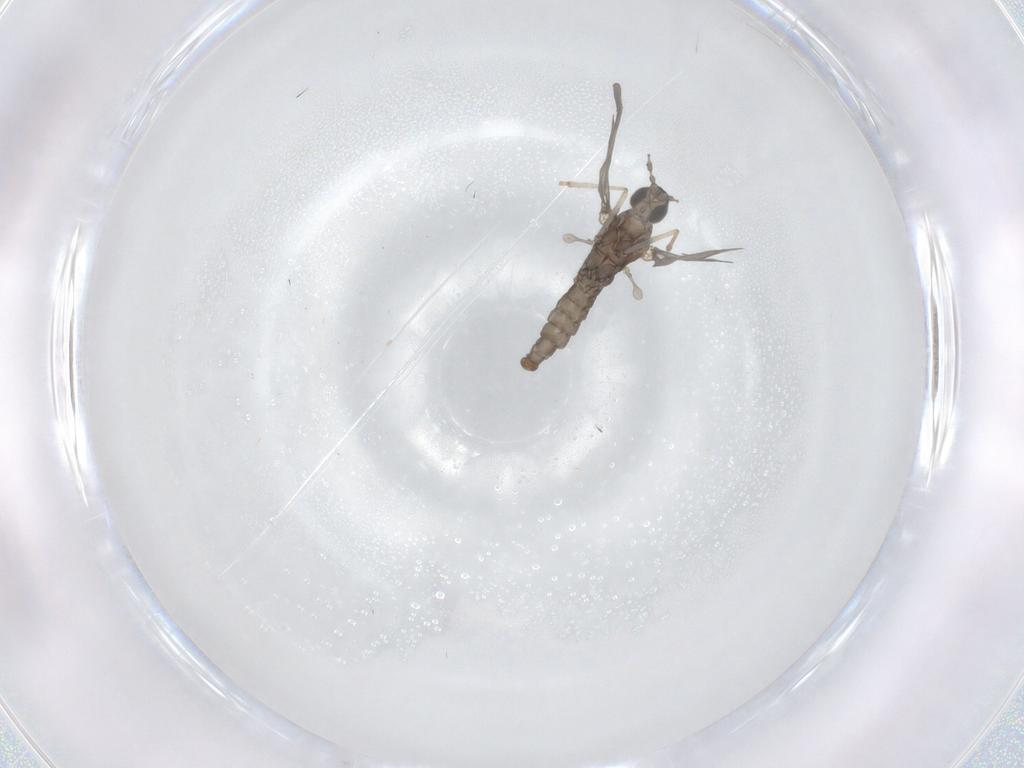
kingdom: Animalia
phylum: Arthropoda
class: Insecta
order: Diptera
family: Cecidomyiidae
